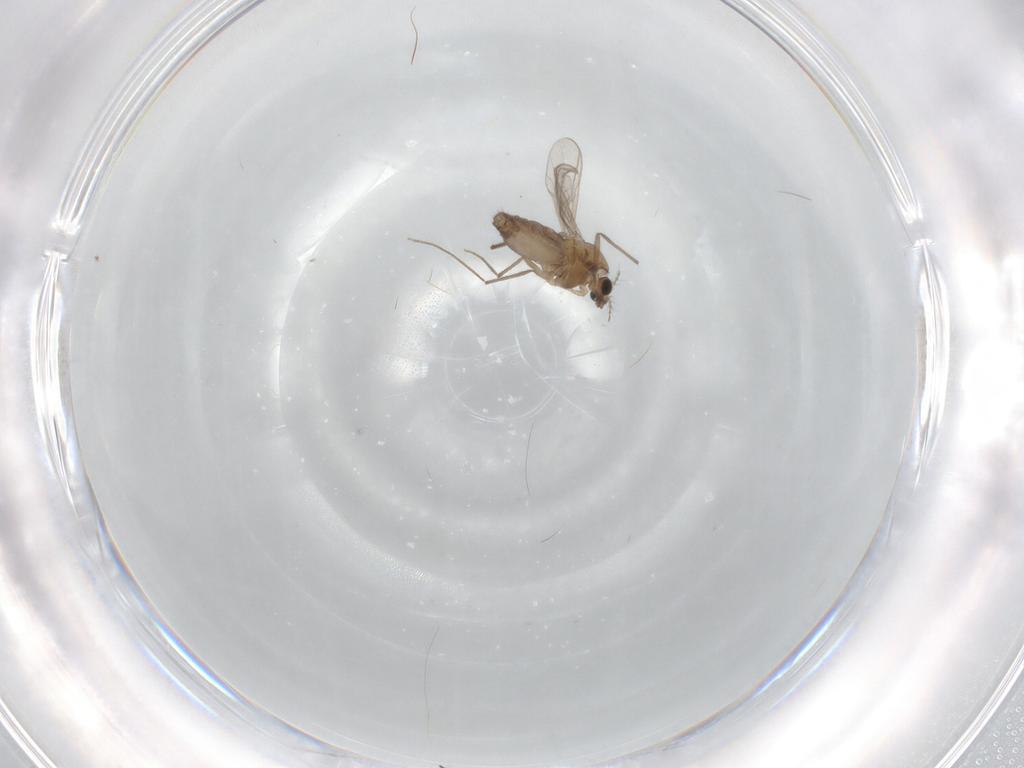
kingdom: Animalia
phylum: Arthropoda
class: Insecta
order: Diptera
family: Chironomidae
